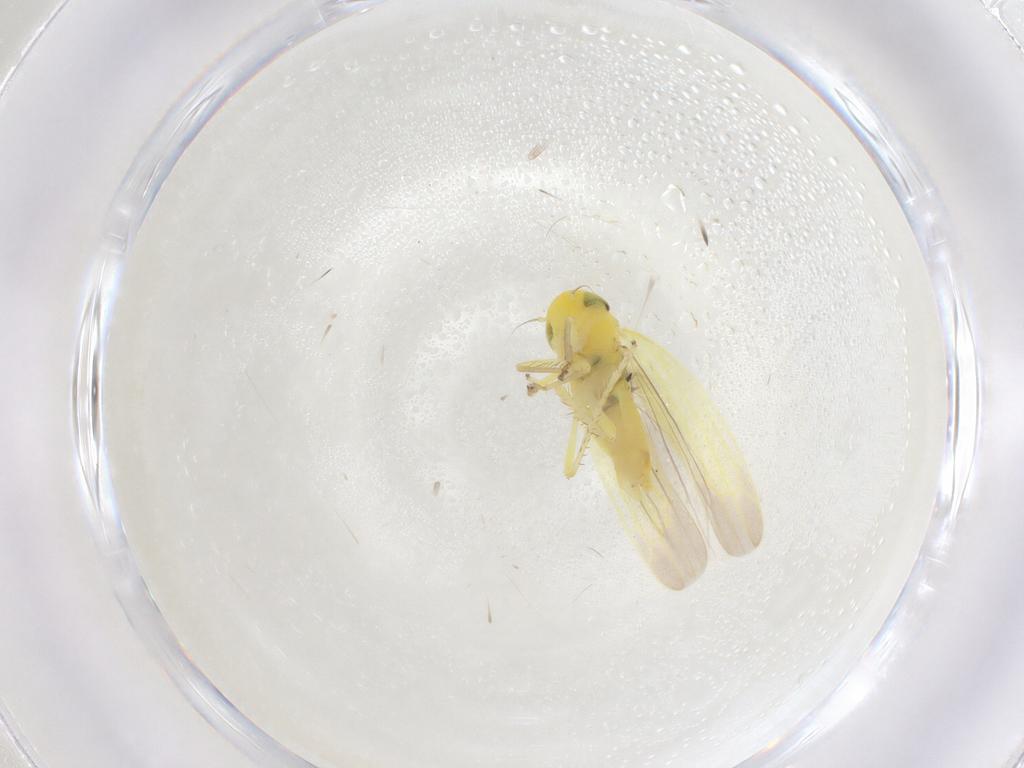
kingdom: Animalia
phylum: Arthropoda
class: Insecta
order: Hemiptera
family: Cicadellidae
